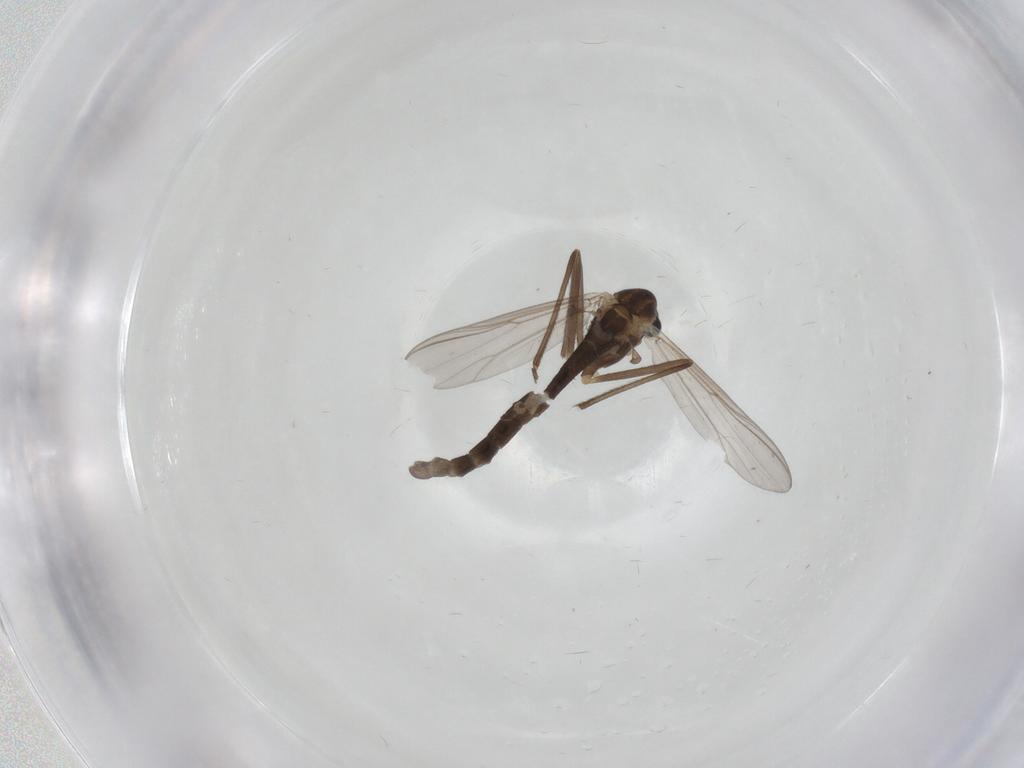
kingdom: Animalia
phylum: Arthropoda
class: Insecta
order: Diptera
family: Chironomidae
